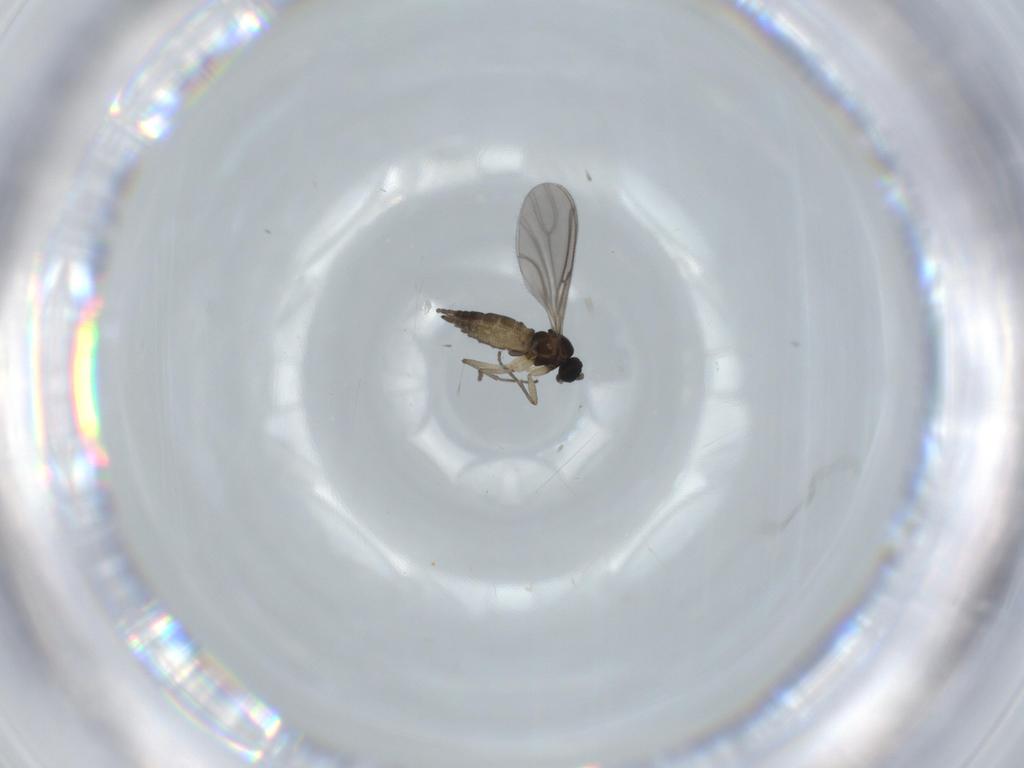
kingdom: Animalia
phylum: Arthropoda
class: Insecta
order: Diptera
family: Sciaridae
